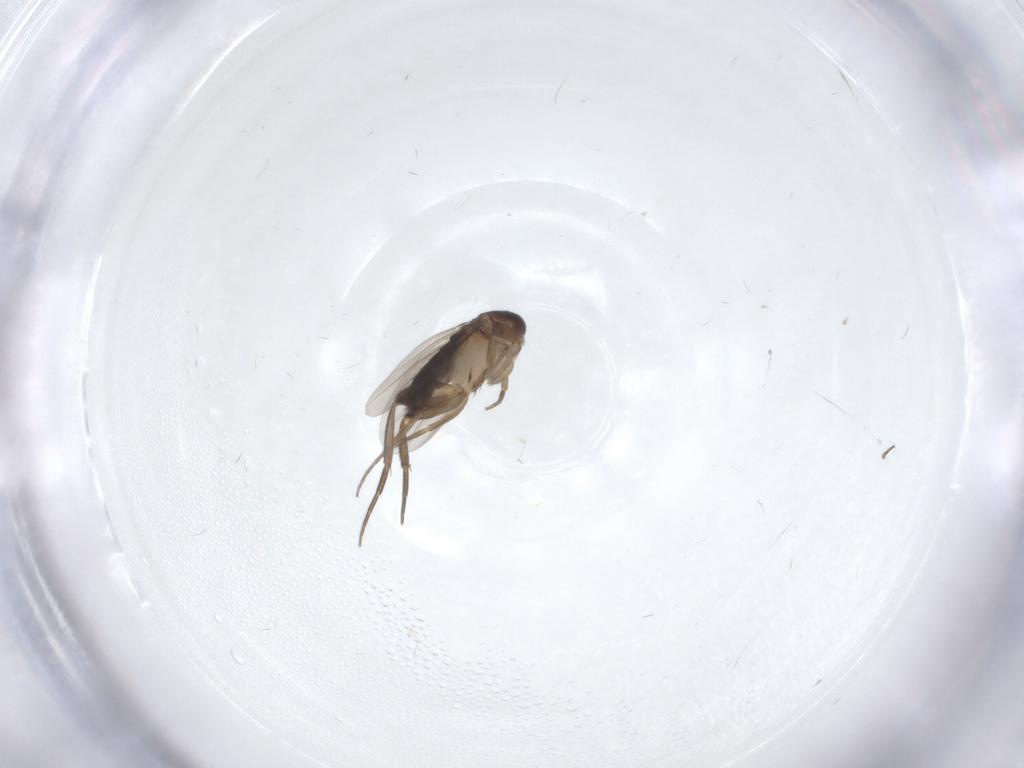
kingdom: Animalia
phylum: Arthropoda
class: Insecta
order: Diptera
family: Phoridae
